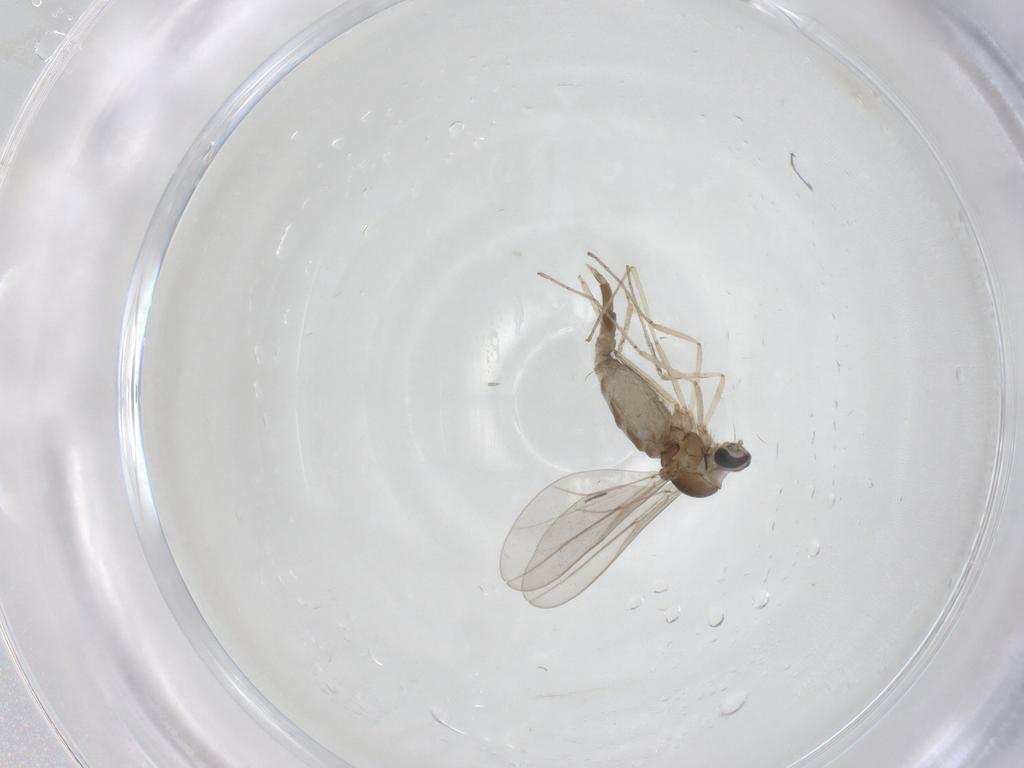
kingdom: Animalia
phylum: Arthropoda
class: Insecta
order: Diptera
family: Cecidomyiidae
